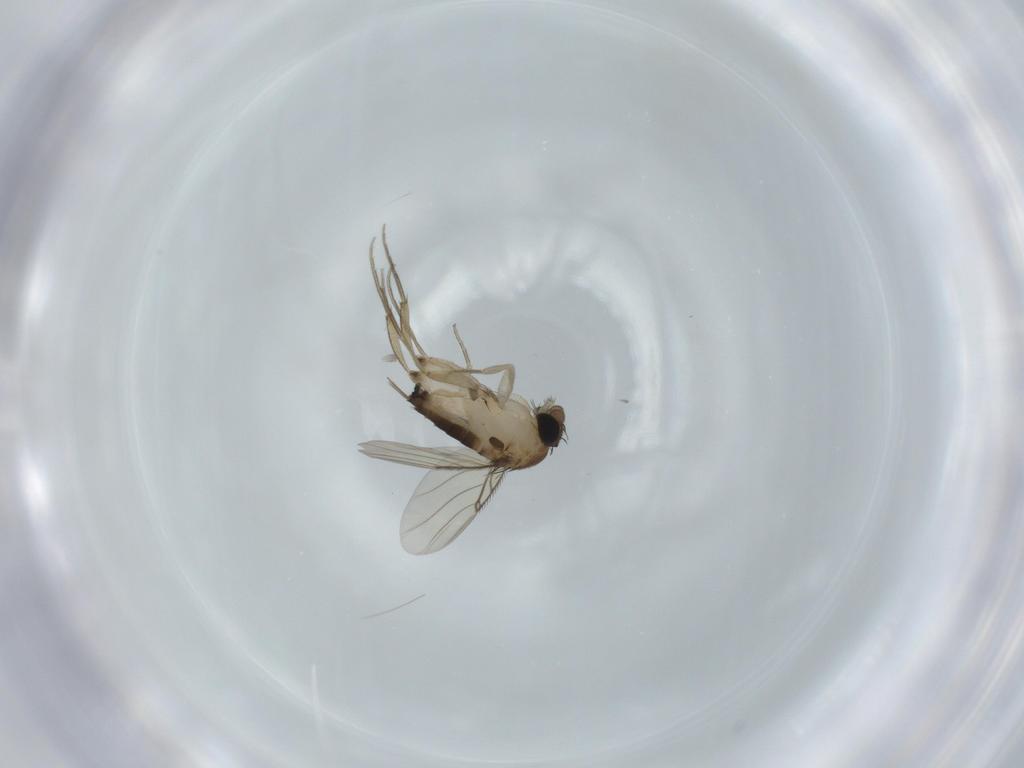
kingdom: Animalia
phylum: Arthropoda
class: Insecta
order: Diptera
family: Phoridae
